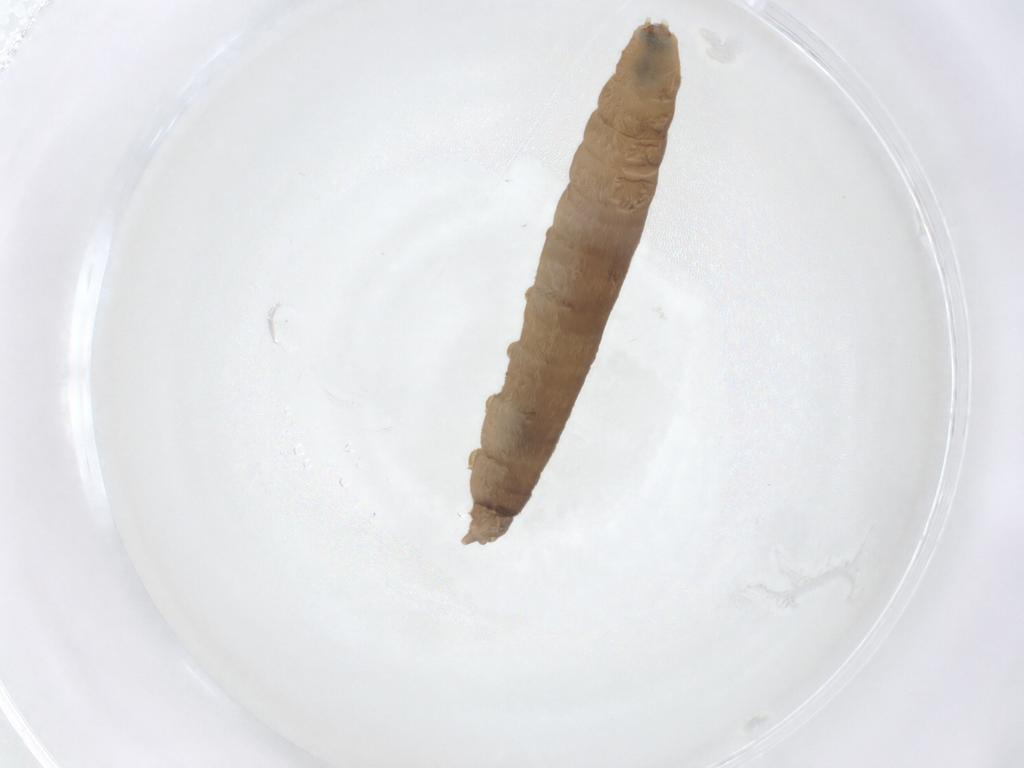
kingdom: Animalia
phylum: Arthropoda
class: Insecta
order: Diptera
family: Pediciidae
